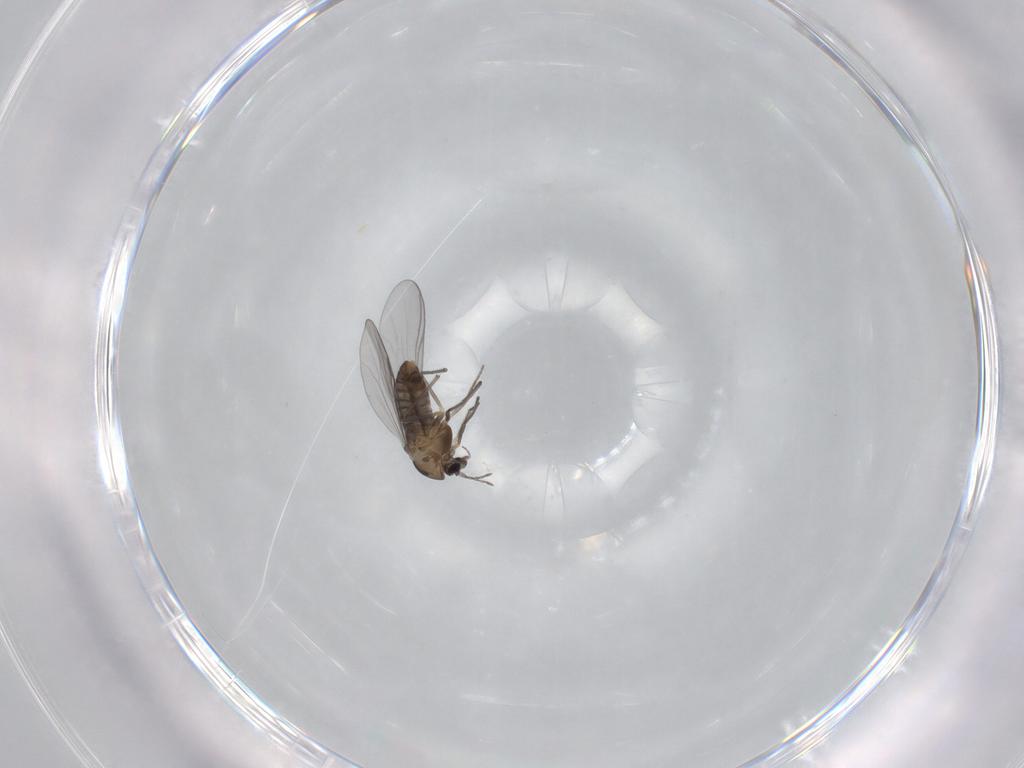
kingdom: Animalia
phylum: Arthropoda
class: Insecta
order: Diptera
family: Chironomidae
